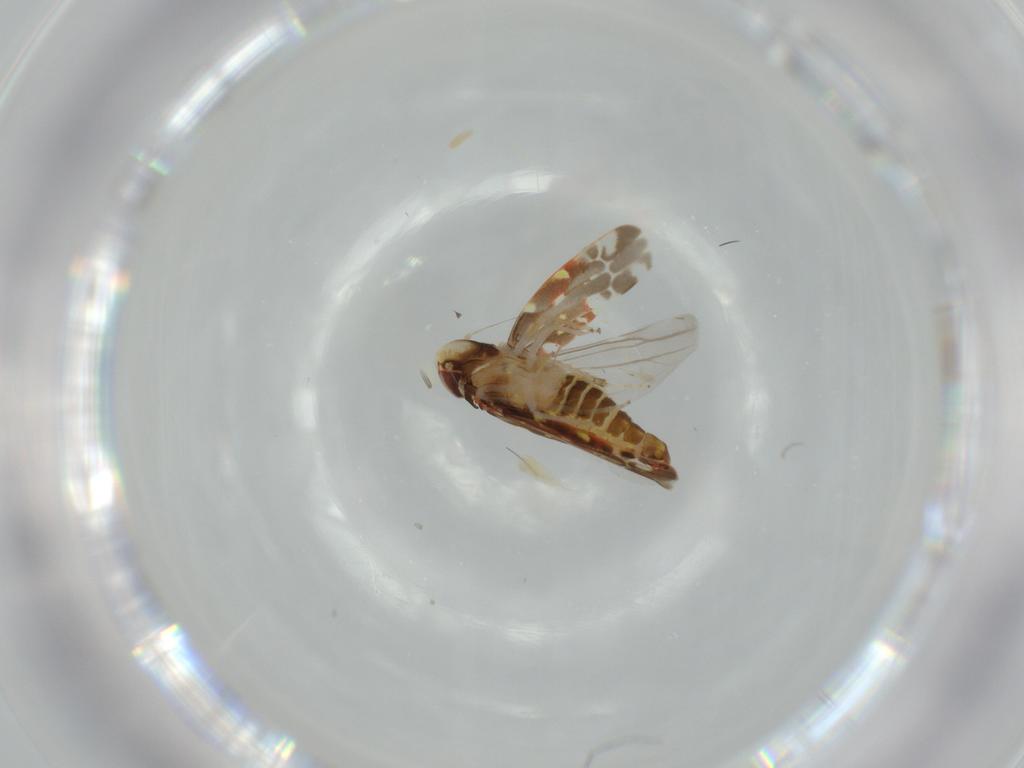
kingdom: Animalia
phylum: Arthropoda
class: Insecta
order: Hemiptera
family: Cicadellidae
